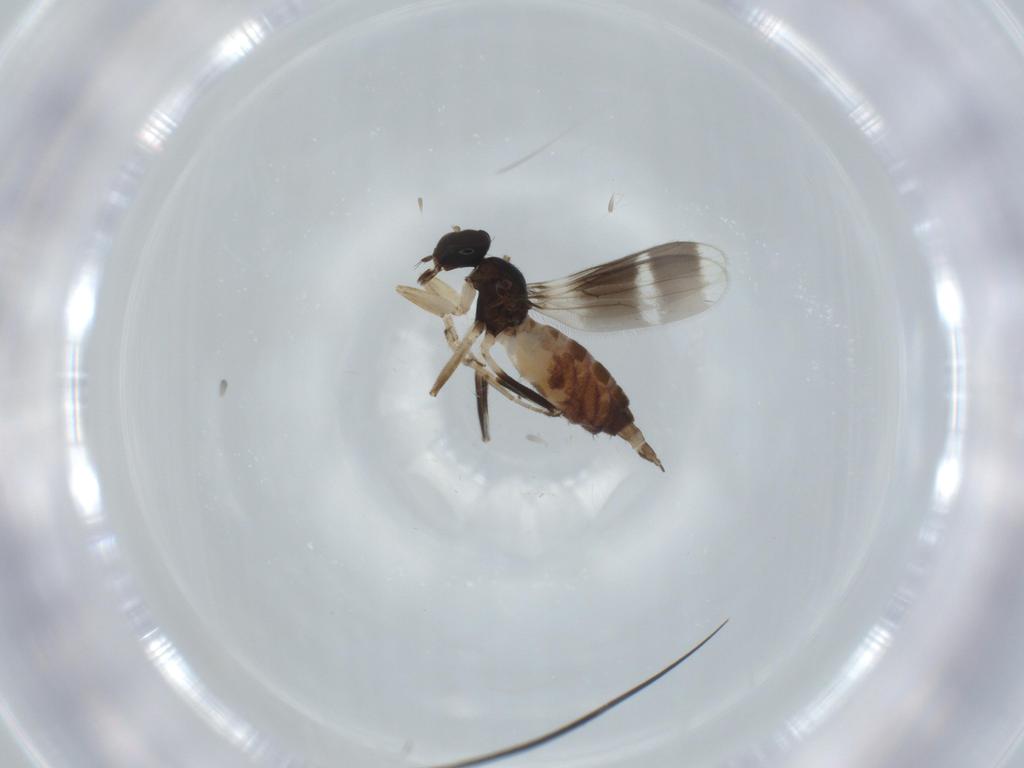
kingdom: Animalia
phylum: Arthropoda
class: Insecta
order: Diptera
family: Hybotidae
